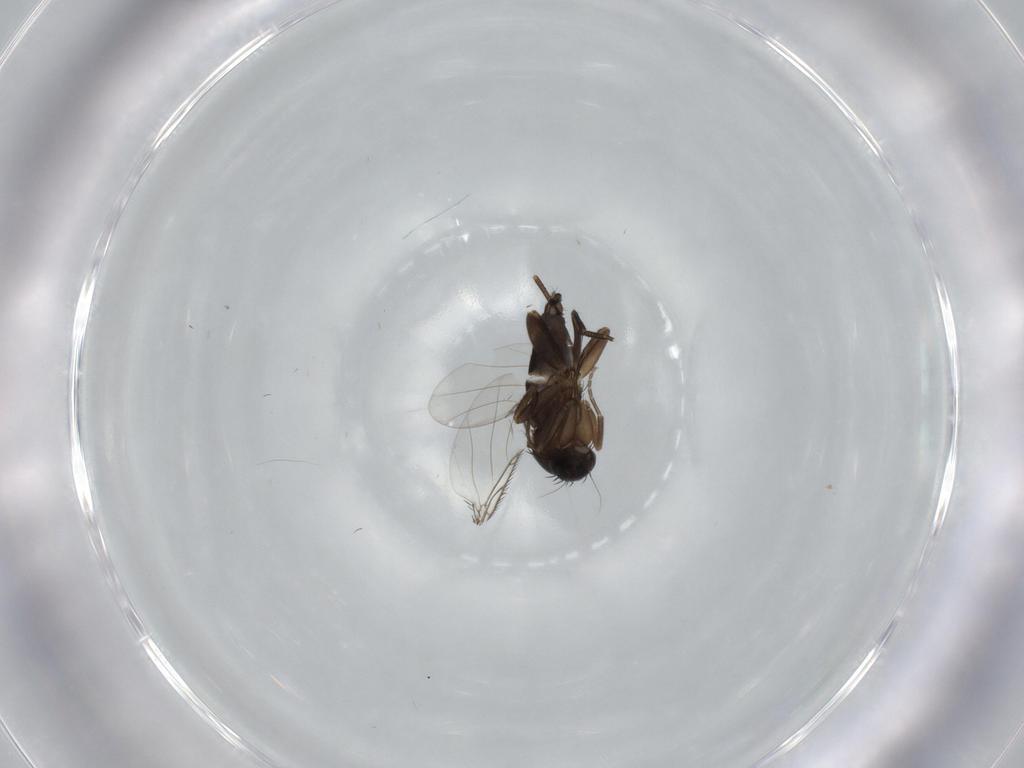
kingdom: Animalia
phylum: Arthropoda
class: Insecta
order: Diptera
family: Phoridae
